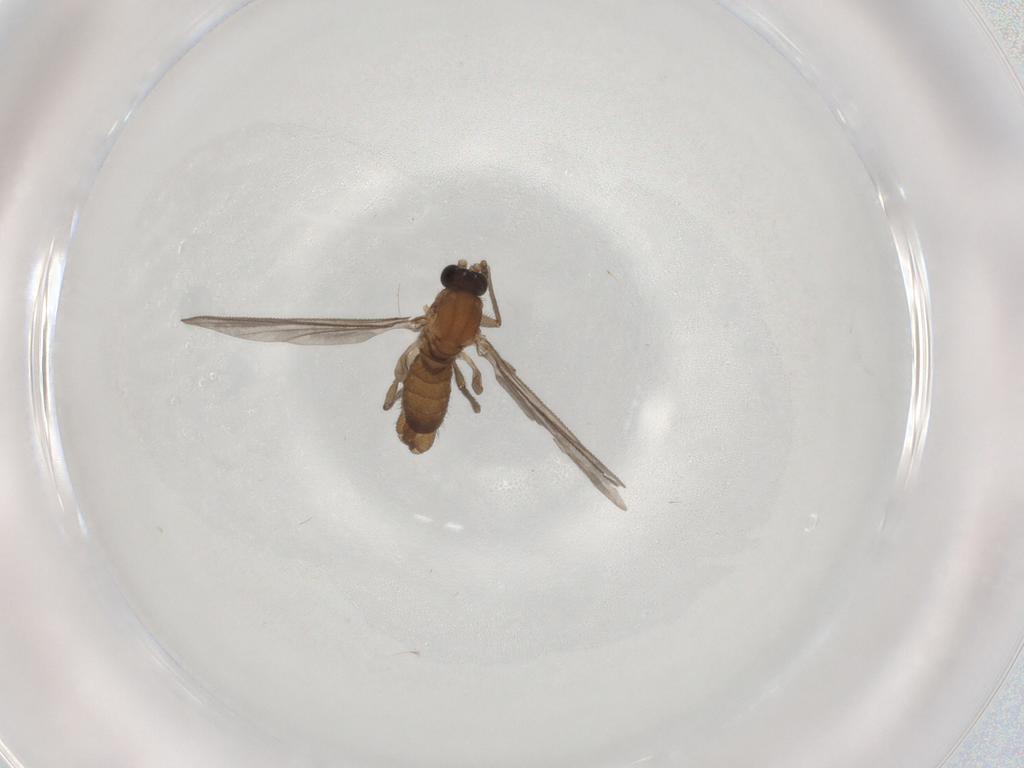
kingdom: Animalia
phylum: Arthropoda
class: Insecta
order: Diptera
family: Sciaridae
